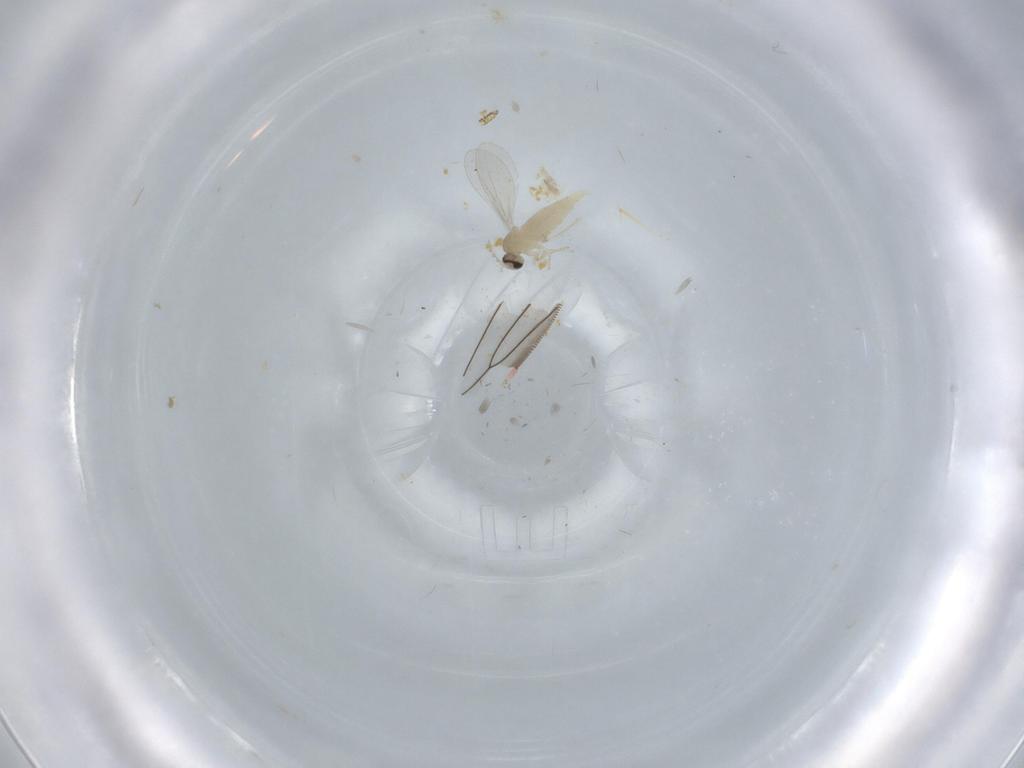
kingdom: Animalia
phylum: Arthropoda
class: Insecta
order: Diptera
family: Cecidomyiidae
